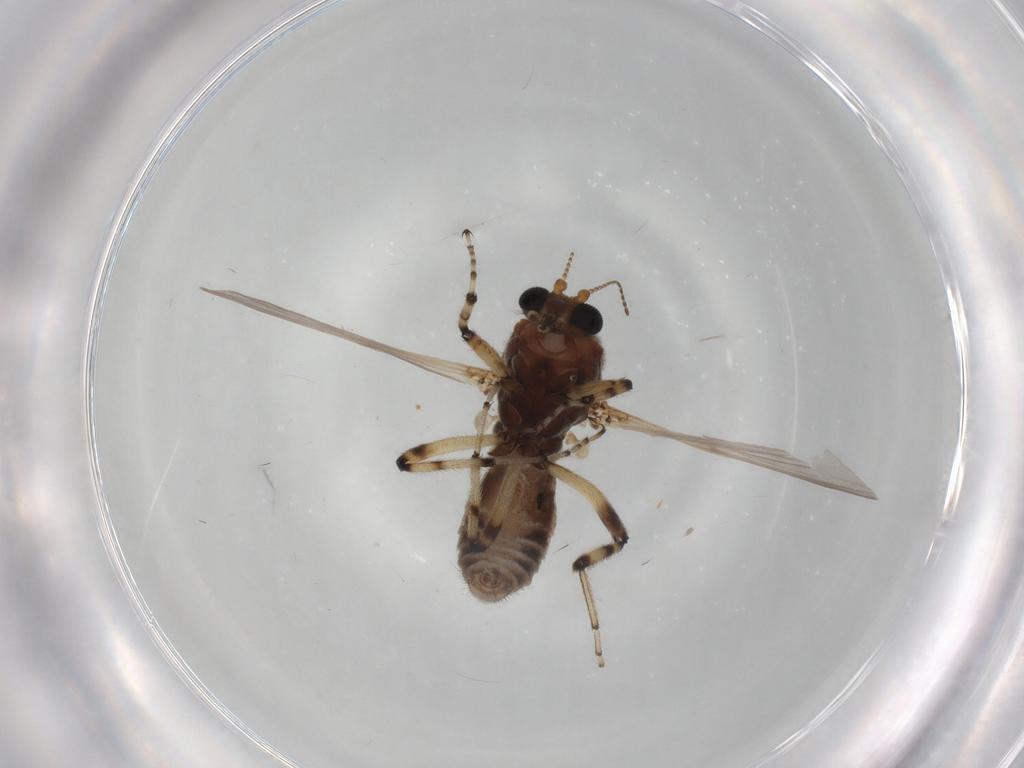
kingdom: Animalia
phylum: Arthropoda
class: Insecta
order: Diptera
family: Ceratopogonidae
